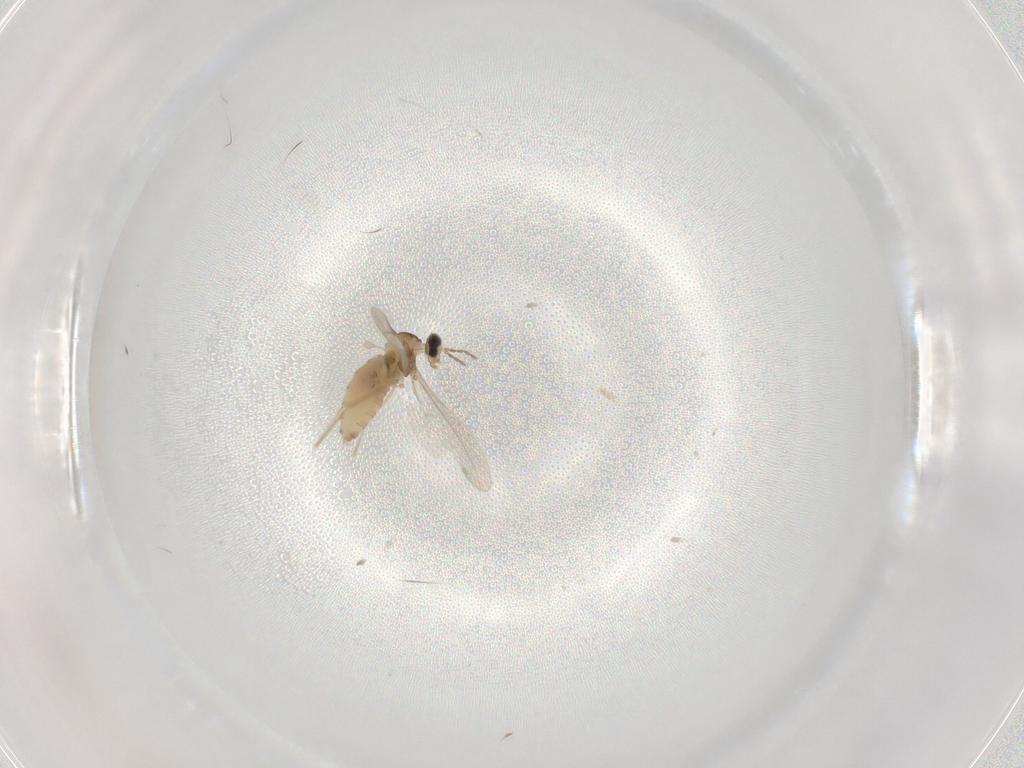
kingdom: Animalia
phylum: Arthropoda
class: Insecta
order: Diptera
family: Cecidomyiidae
